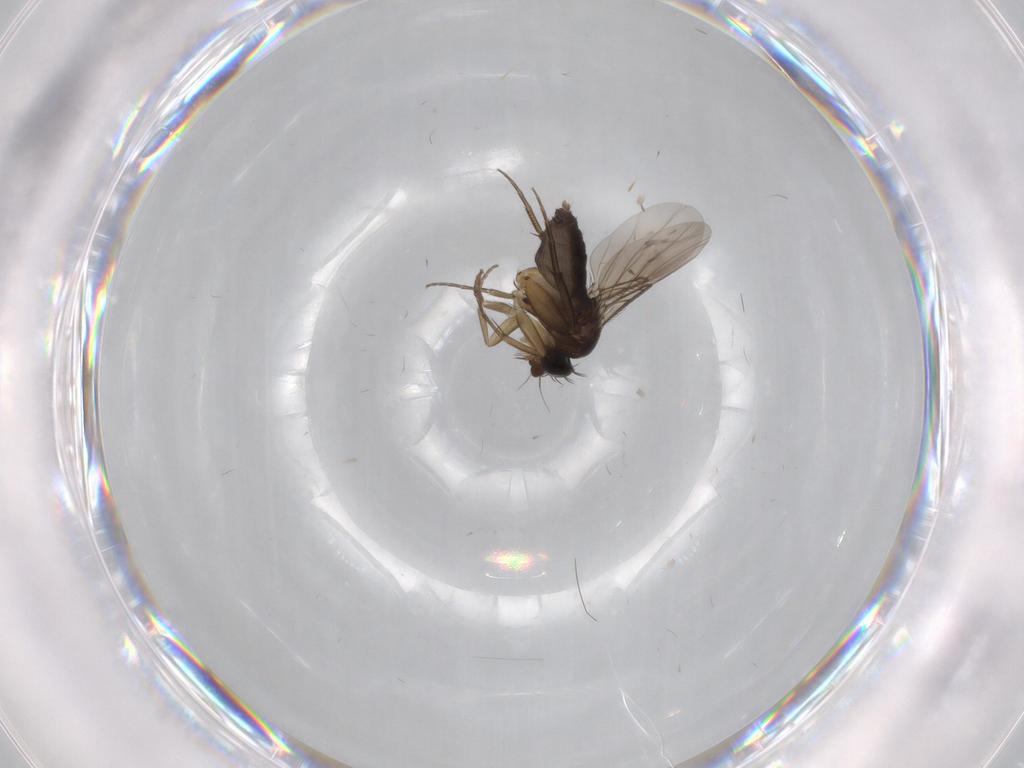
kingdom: Animalia
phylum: Arthropoda
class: Insecta
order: Diptera
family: Phoridae
